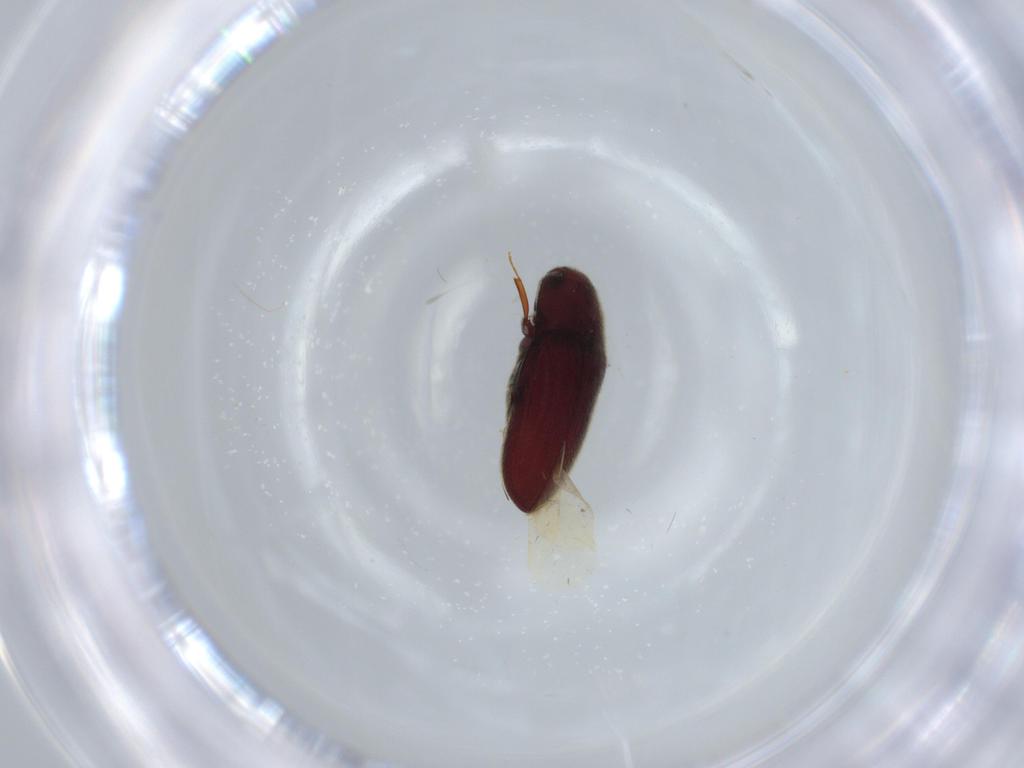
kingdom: Animalia
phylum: Arthropoda
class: Insecta
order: Coleoptera
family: Throscidae
